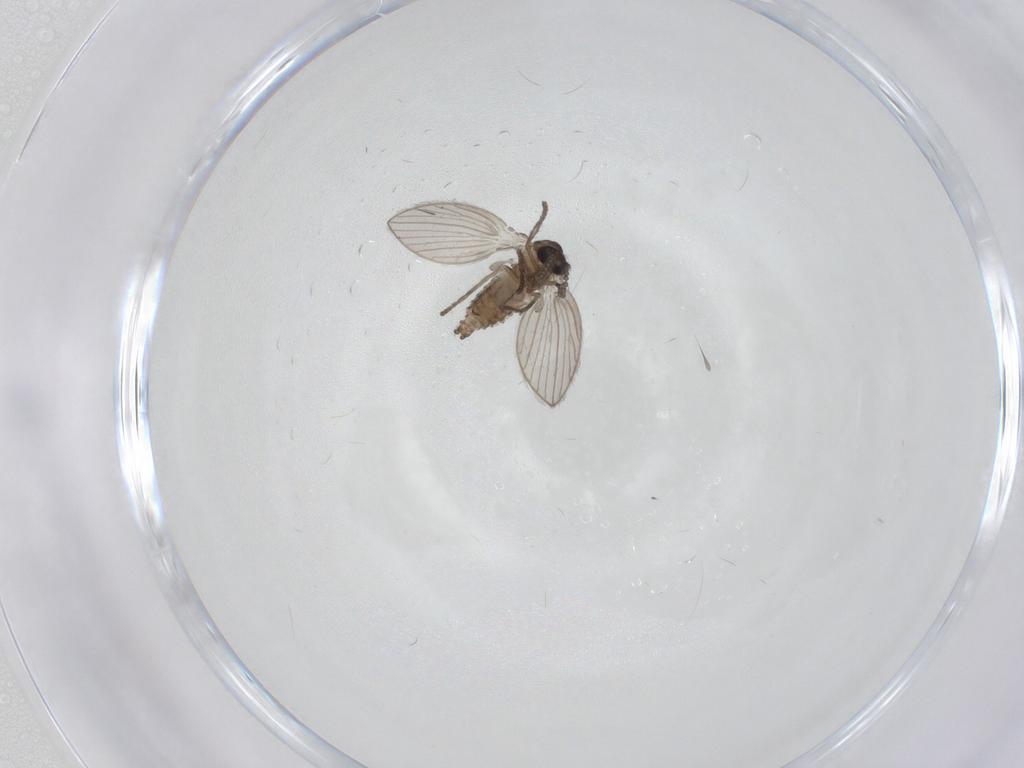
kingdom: Animalia
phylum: Arthropoda
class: Insecta
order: Diptera
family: Psychodidae
